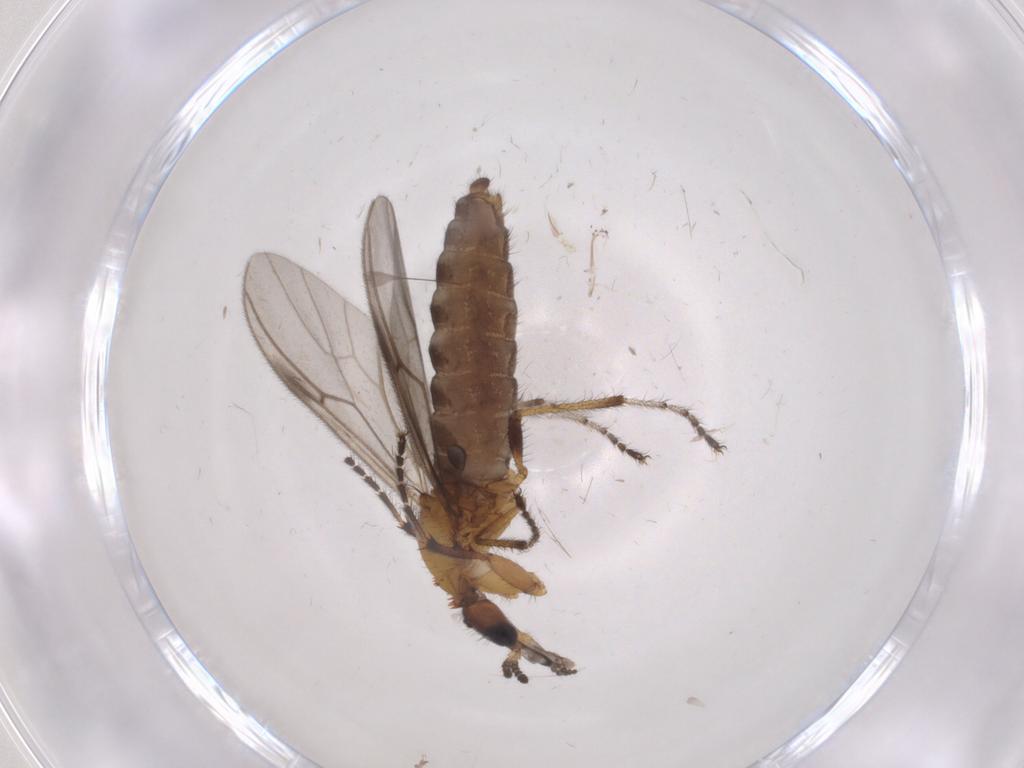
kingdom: Animalia
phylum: Arthropoda
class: Insecta
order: Diptera
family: Bibionidae
